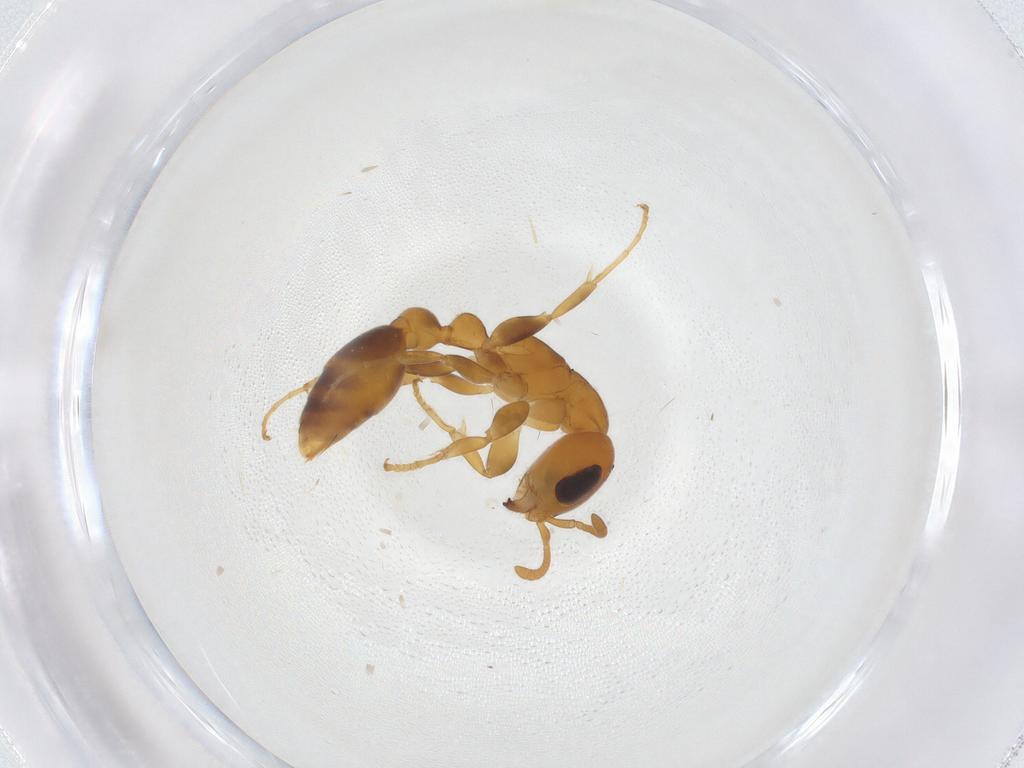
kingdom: Animalia
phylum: Arthropoda
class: Insecta
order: Hymenoptera
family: Formicidae
